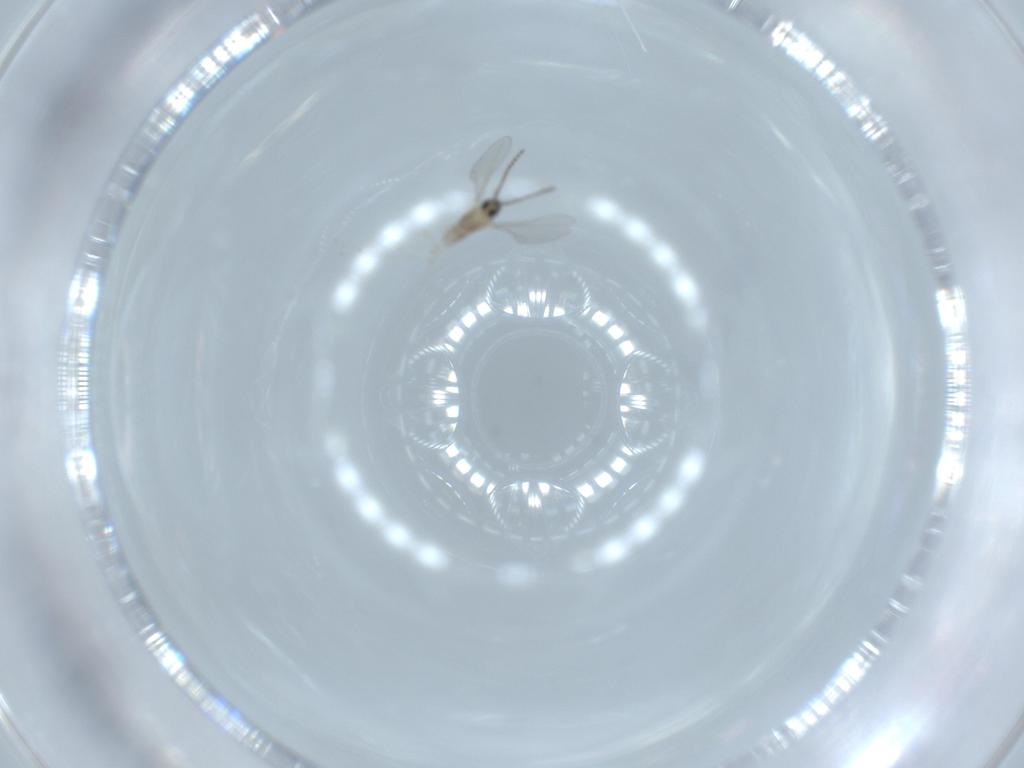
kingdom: Animalia
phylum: Arthropoda
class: Insecta
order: Diptera
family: Cecidomyiidae
